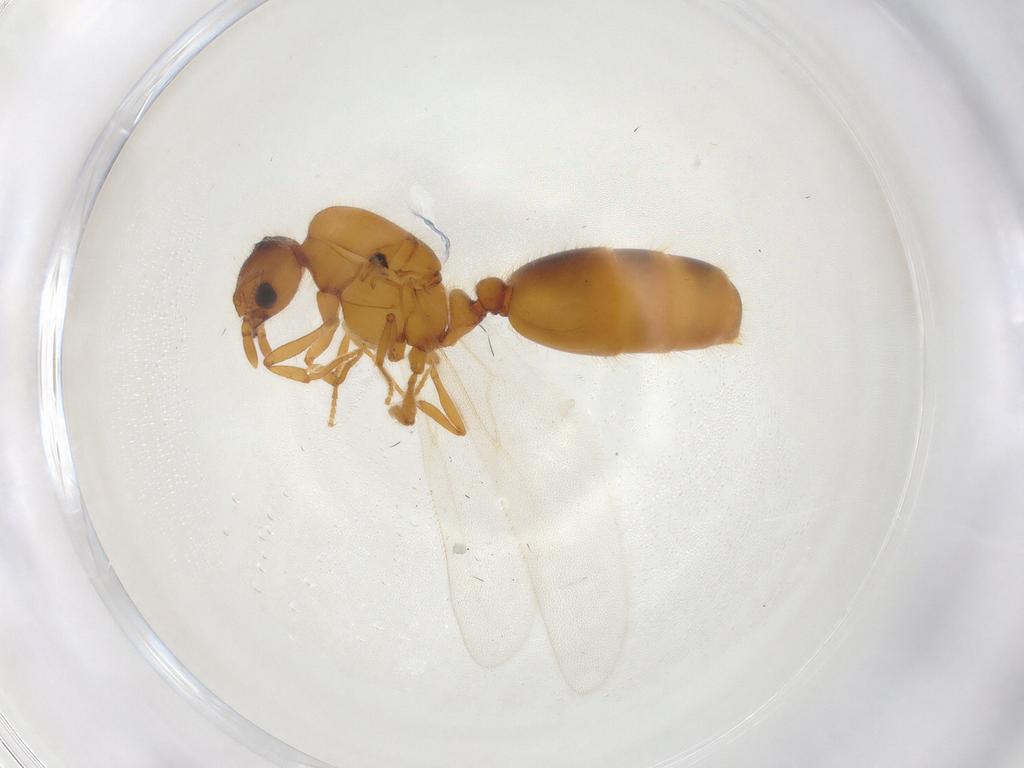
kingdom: Animalia
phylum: Arthropoda
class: Insecta
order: Hymenoptera
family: Formicidae
